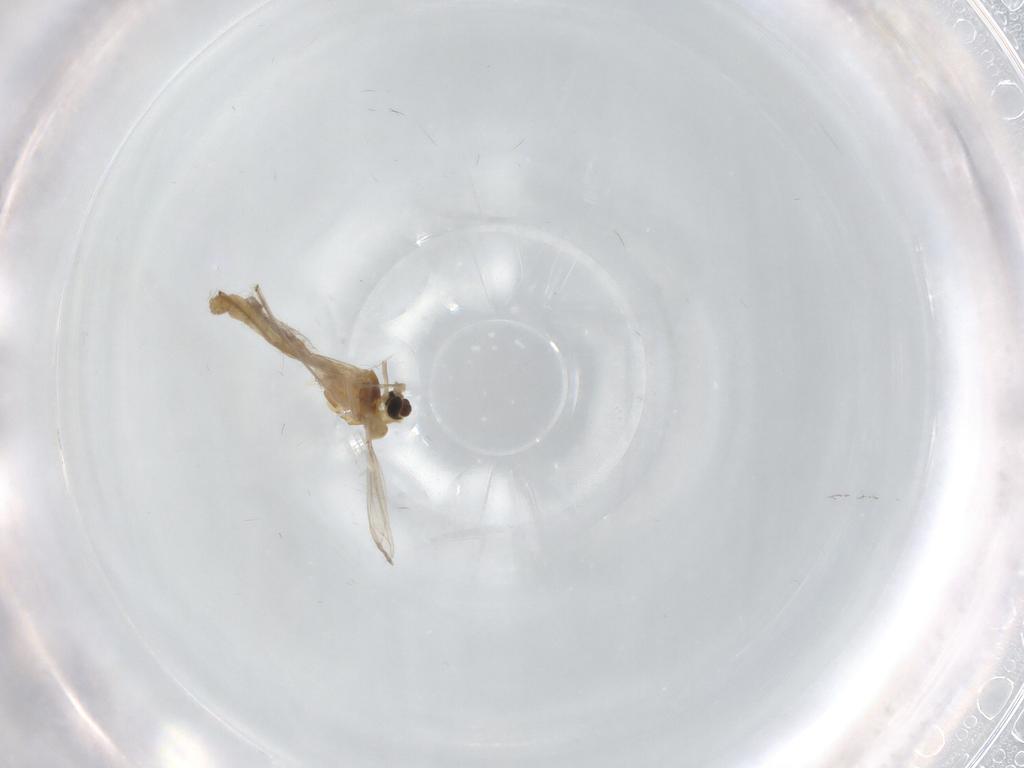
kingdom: Animalia
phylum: Arthropoda
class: Insecta
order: Diptera
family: Chironomidae
